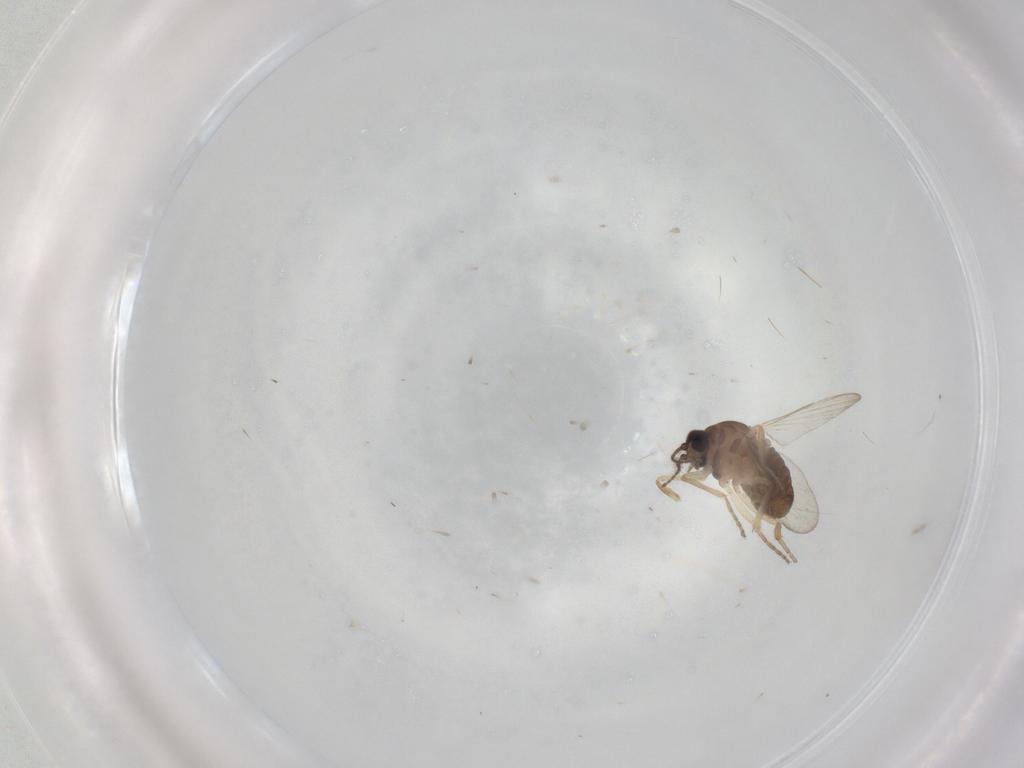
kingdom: Animalia
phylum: Arthropoda
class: Insecta
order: Diptera
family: Ceratopogonidae
